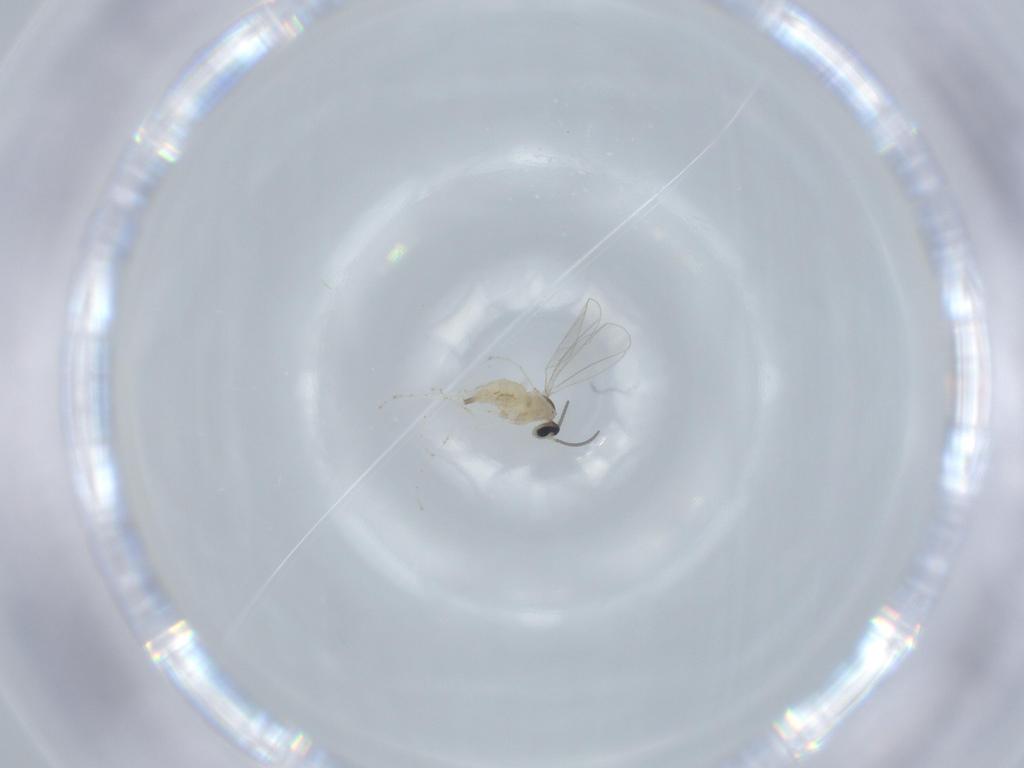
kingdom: Animalia
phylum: Arthropoda
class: Insecta
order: Diptera
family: Cecidomyiidae
